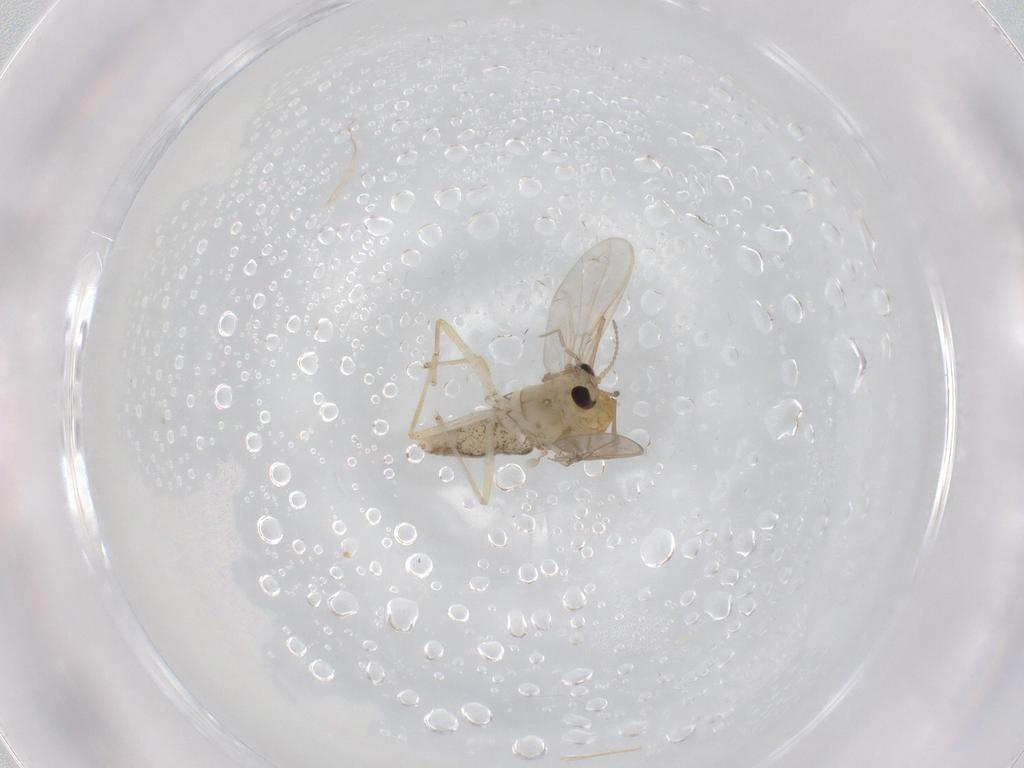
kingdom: Animalia
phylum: Arthropoda
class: Insecta
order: Diptera
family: Chironomidae
